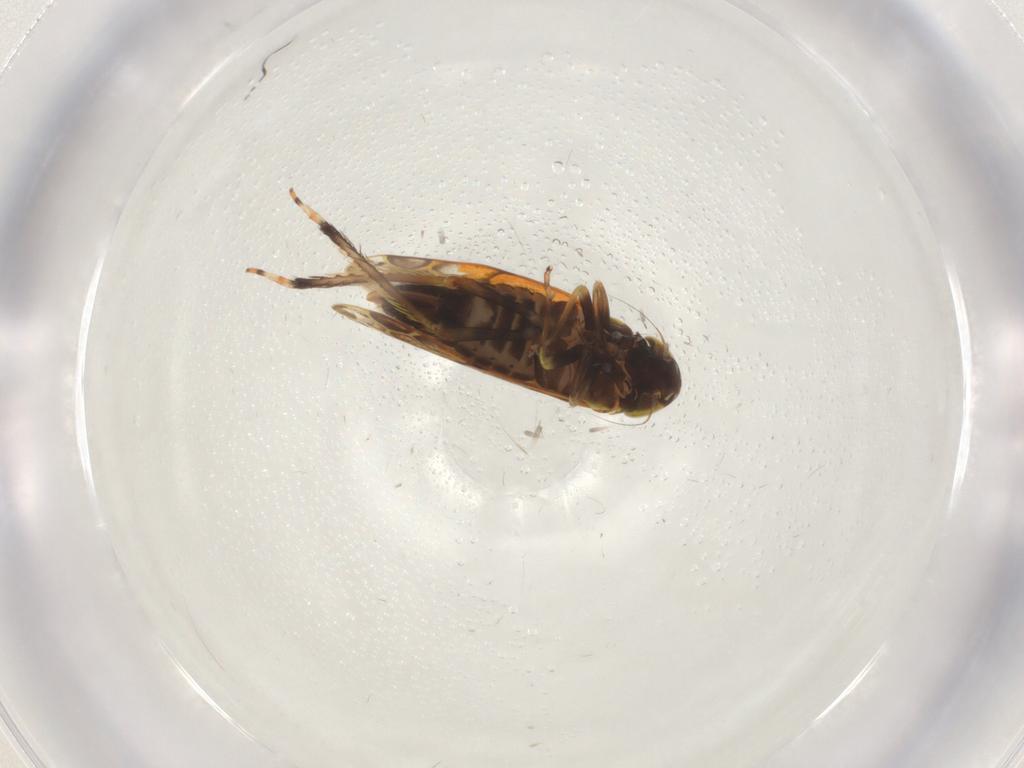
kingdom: Animalia
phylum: Arthropoda
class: Insecta
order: Hemiptera
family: Cicadellidae
